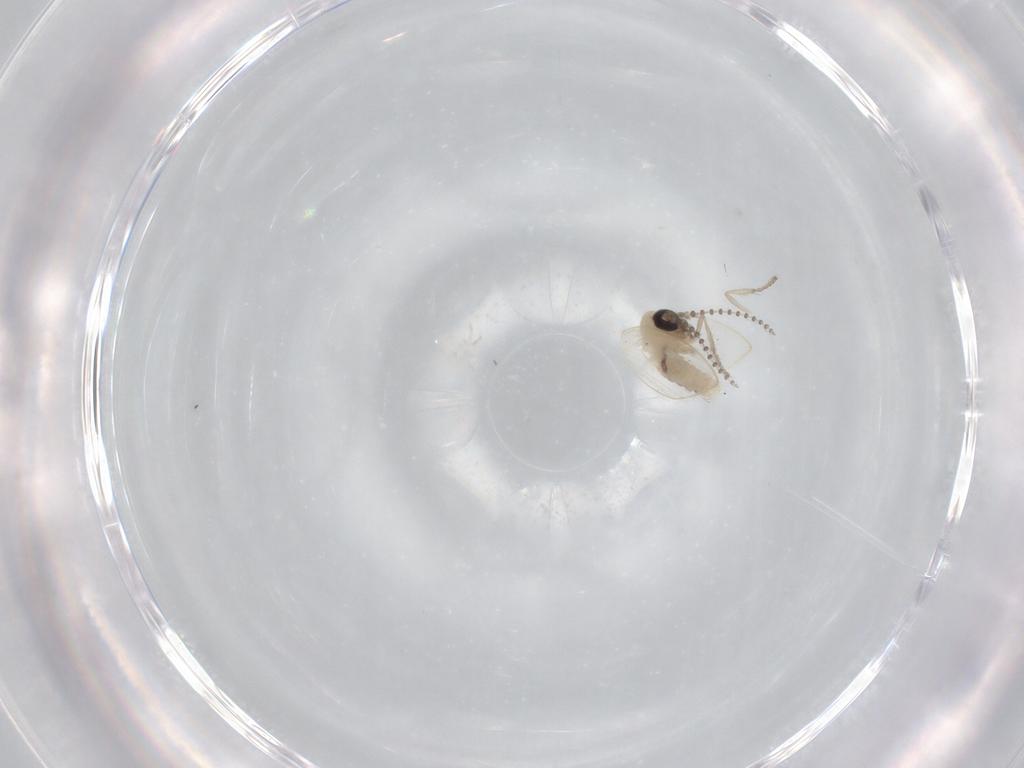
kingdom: Animalia
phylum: Arthropoda
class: Insecta
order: Diptera
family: Psychodidae
